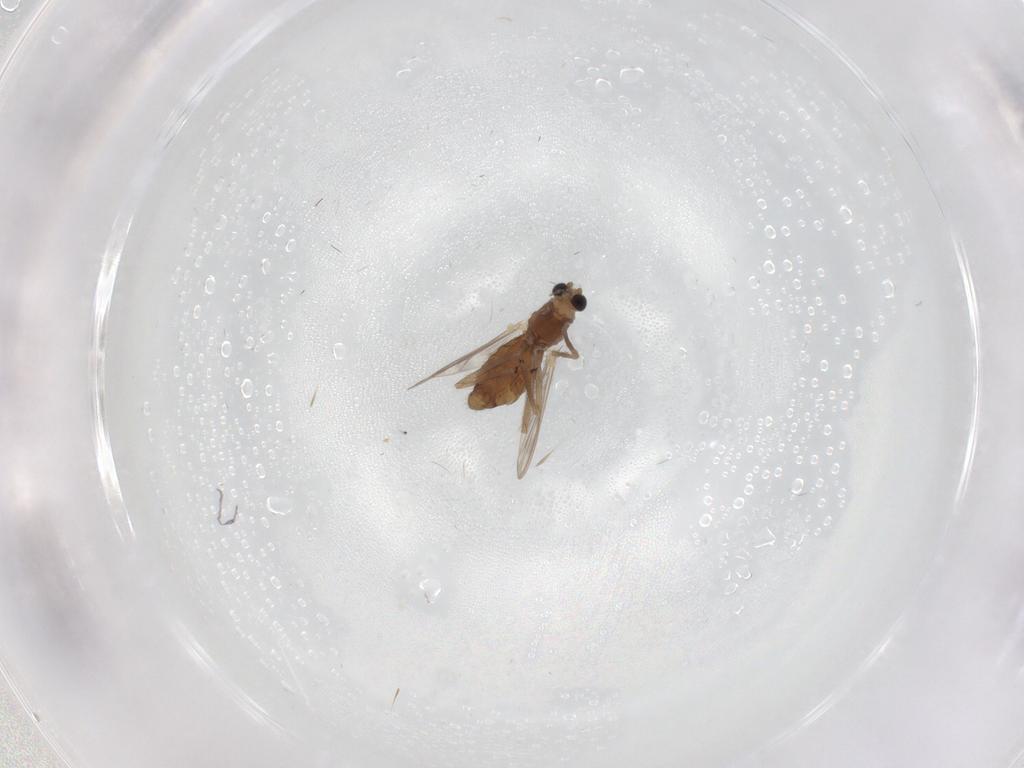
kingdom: Animalia
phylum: Arthropoda
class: Insecta
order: Diptera
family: Chironomidae
